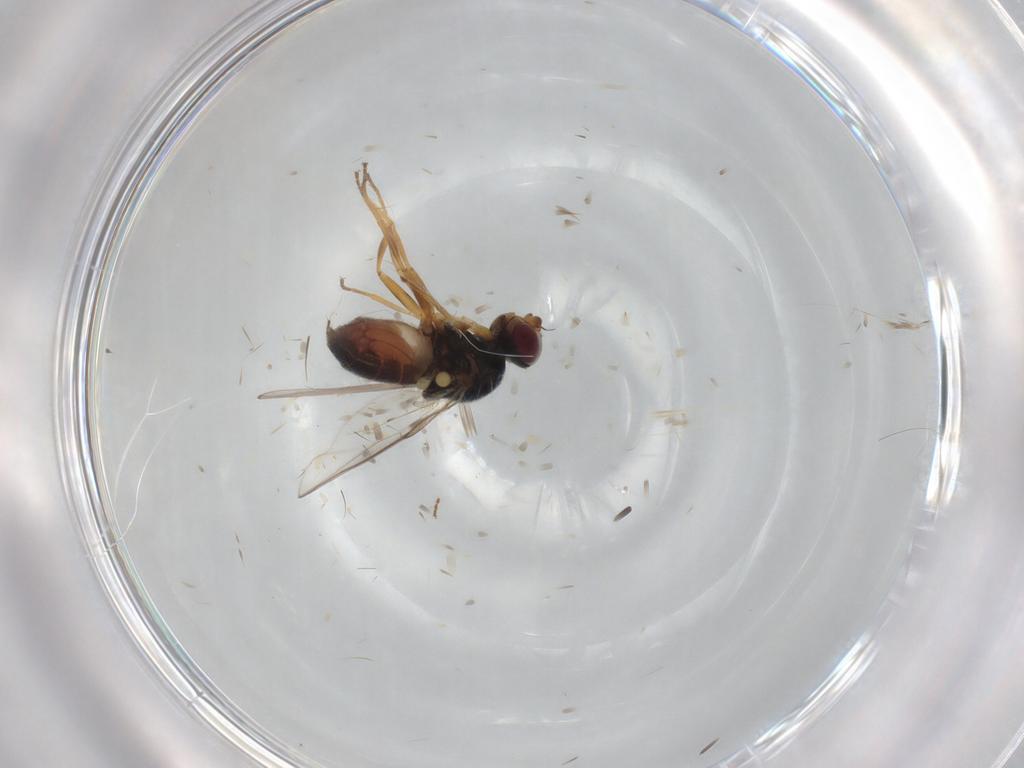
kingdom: Animalia
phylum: Arthropoda
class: Insecta
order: Diptera
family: Chloropidae
